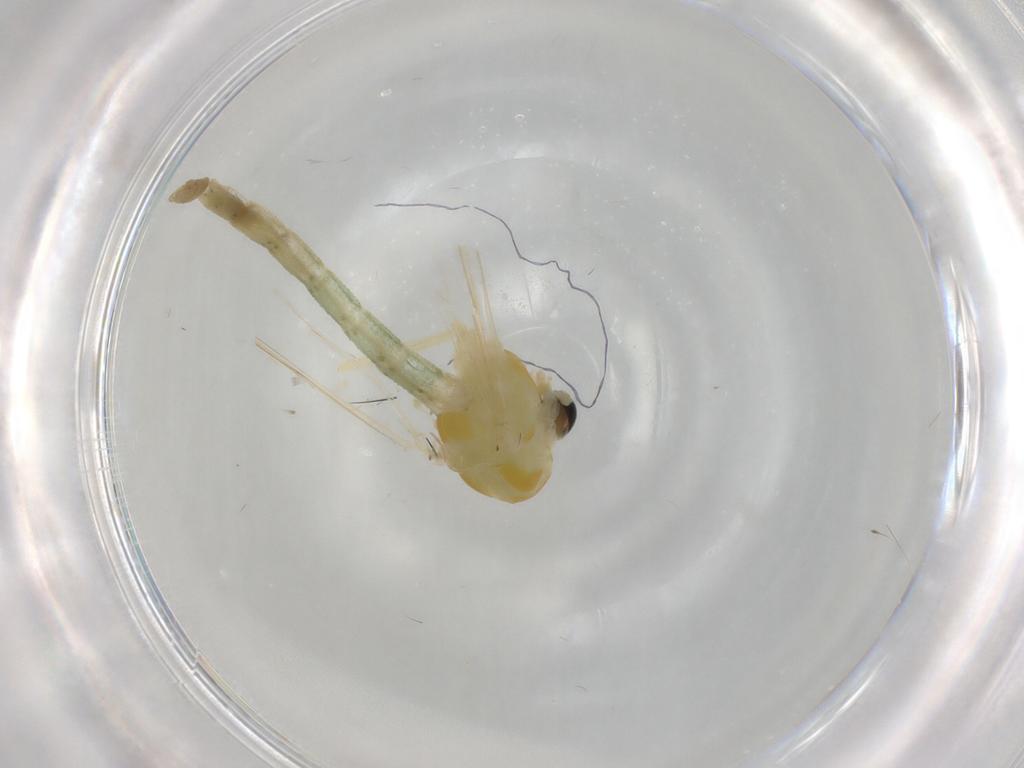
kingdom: Animalia
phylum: Arthropoda
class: Insecta
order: Diptera
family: Chironomidae
